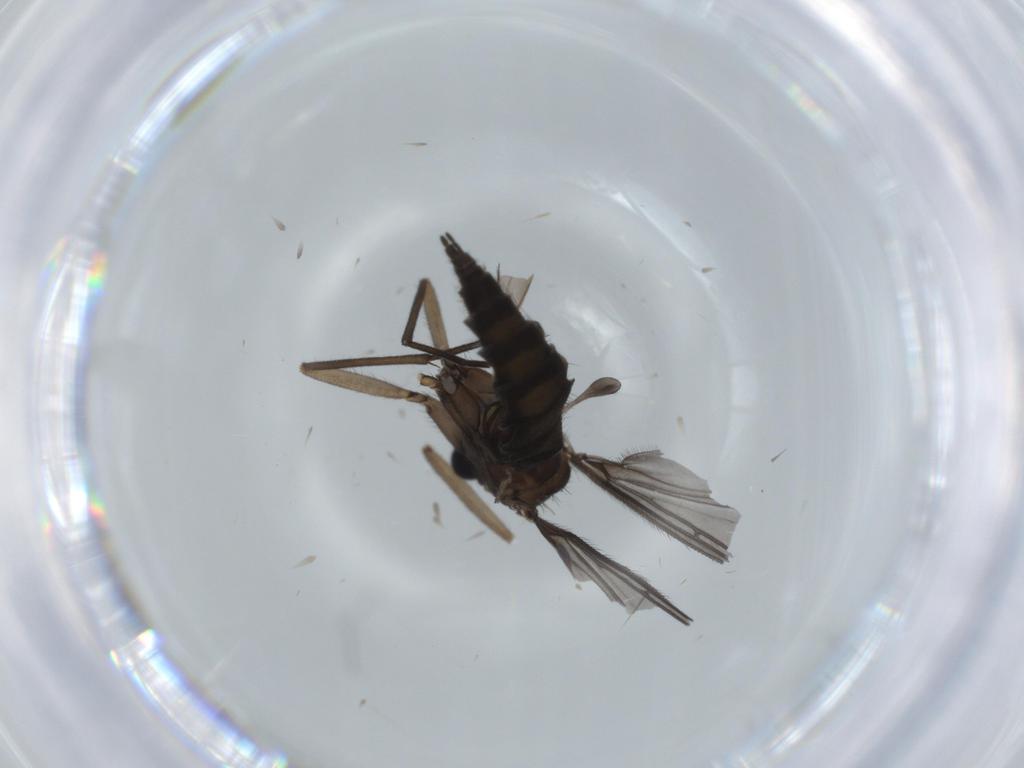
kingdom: Animalia
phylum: Arthropoda
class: Insecta
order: Diptera
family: Sciaridae
